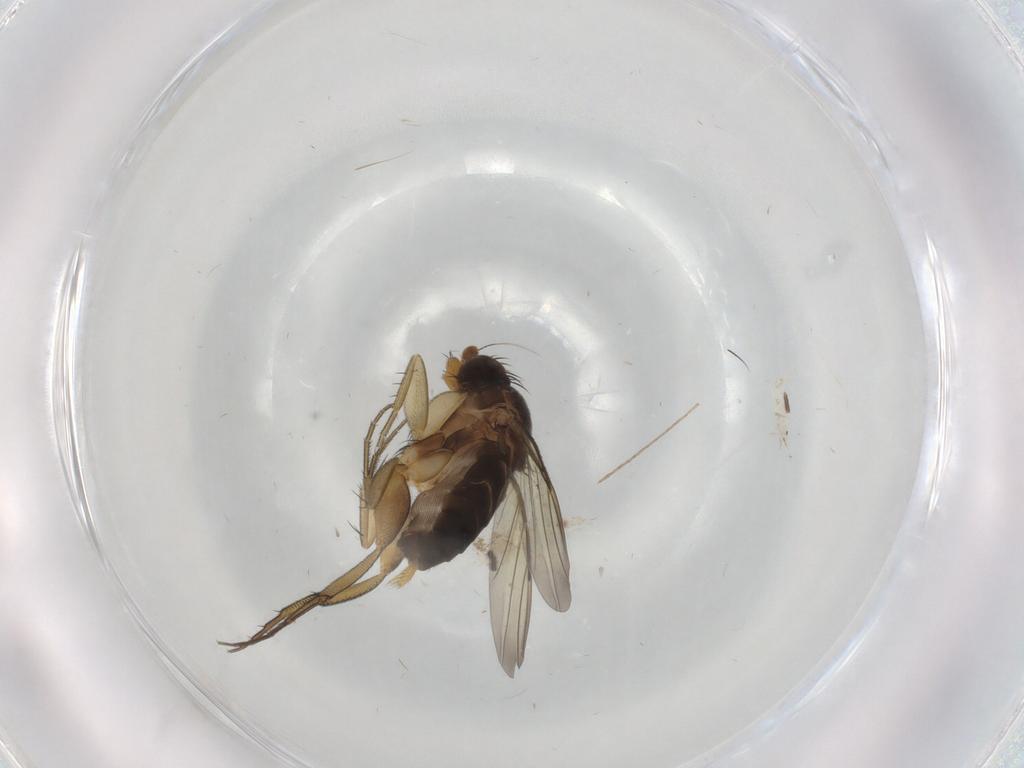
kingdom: Animalia
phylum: Arthropoda
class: Insecta
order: Diptera
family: Phoridae
